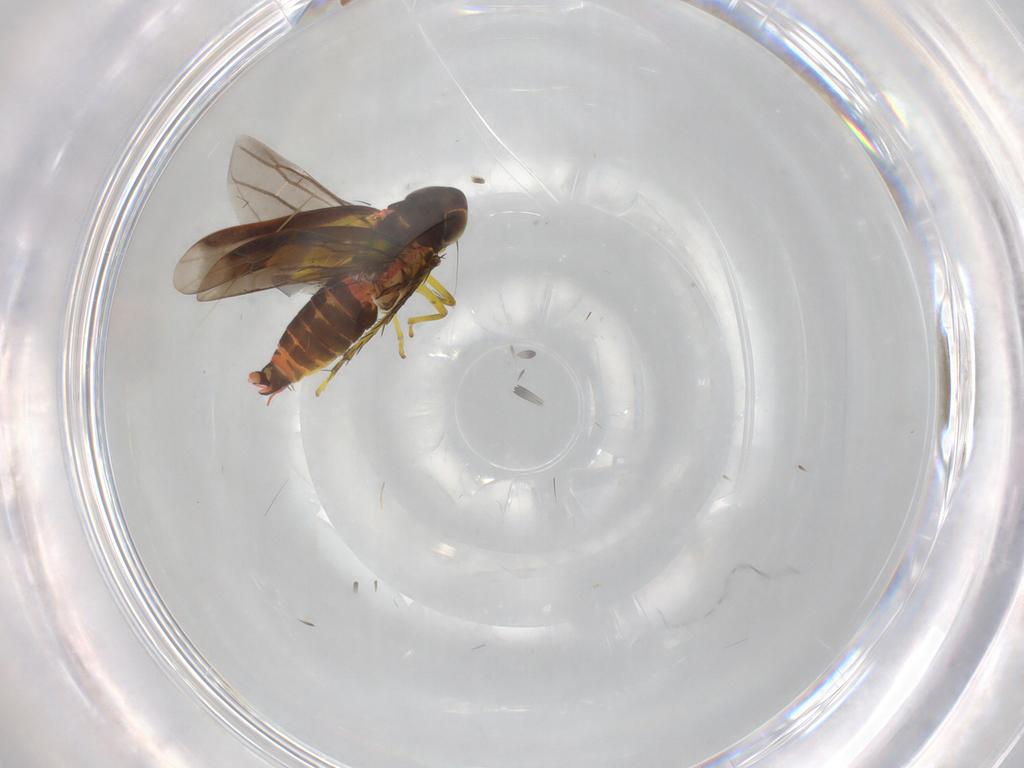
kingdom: Animalia
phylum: Arthropoda
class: Insecta
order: Hemiptera
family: Cicadellidae
